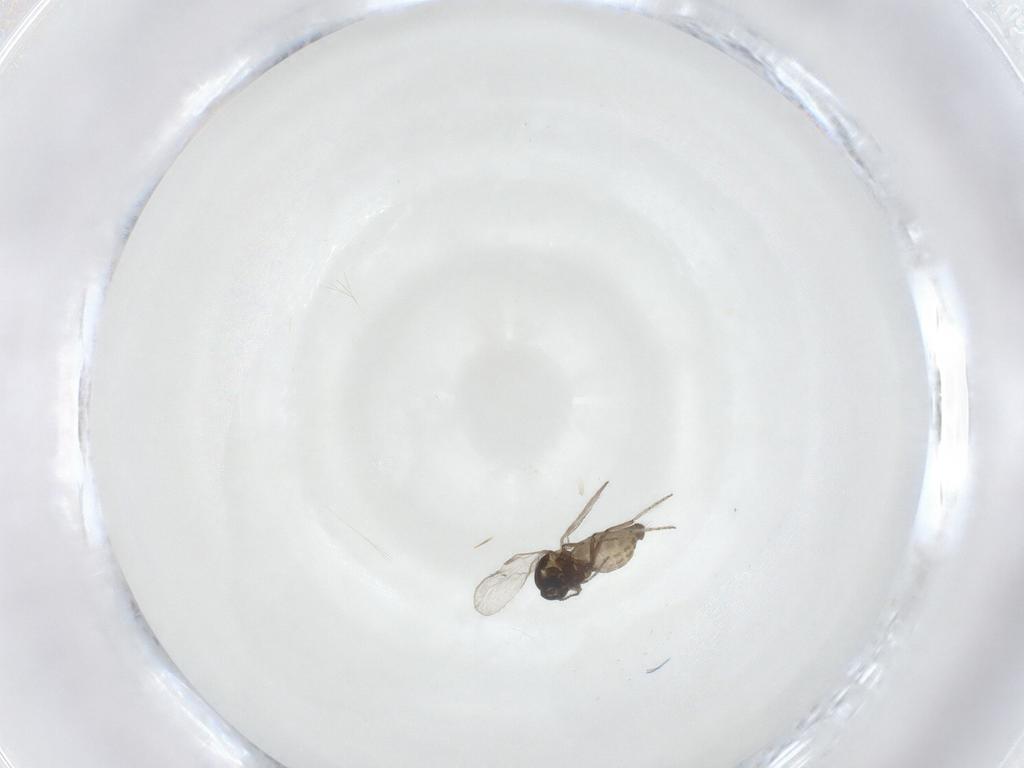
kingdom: Animalia
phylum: Arthropoda
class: Insecta
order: Diptera
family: Ceratopogonidae
